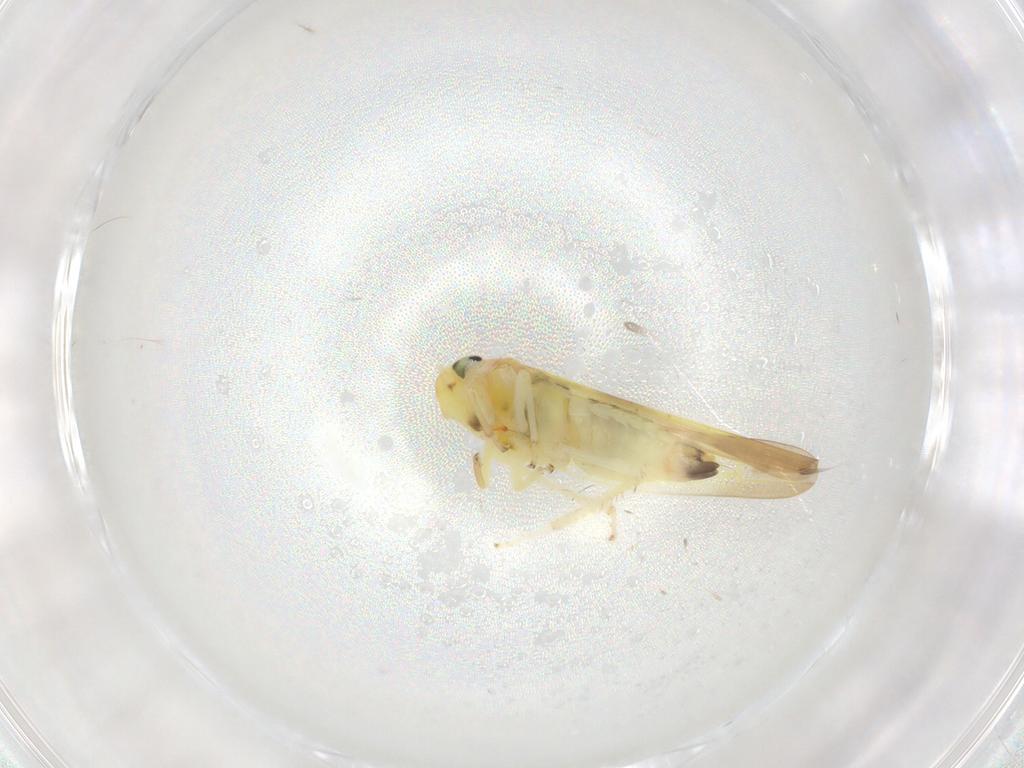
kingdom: Animalia
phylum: Arthropoda
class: Insecta
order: Hemiptera
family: Cicadellidae
